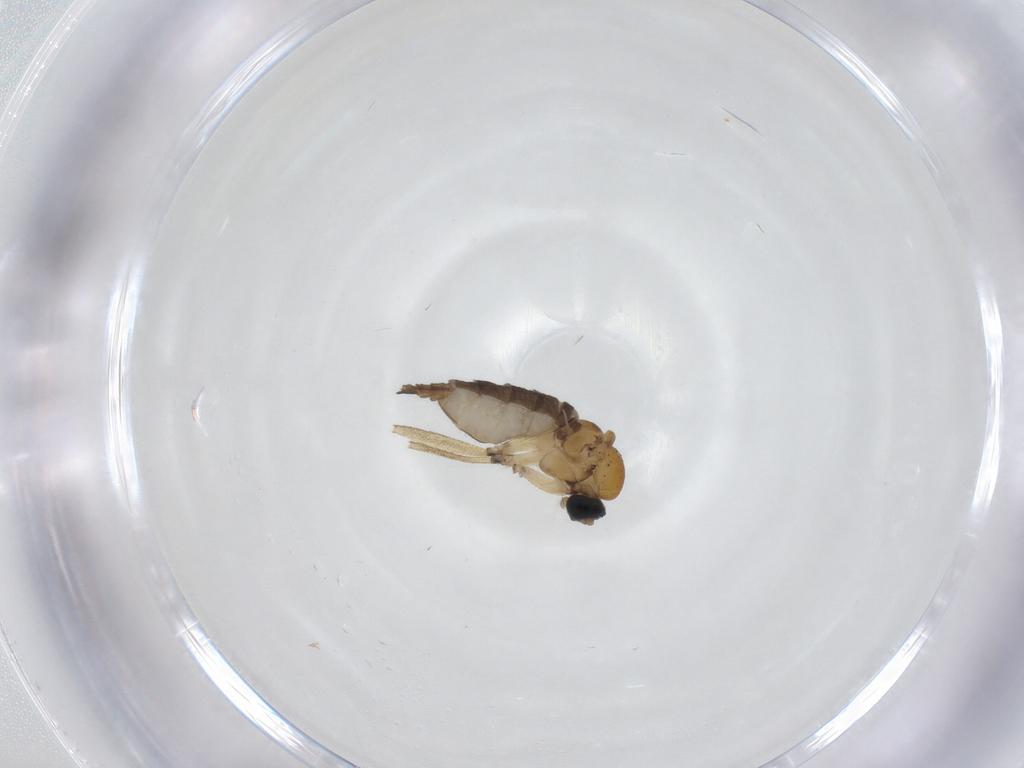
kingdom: Animalia
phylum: Arthropoda
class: Insecta
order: Diptera
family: Sciaridae
